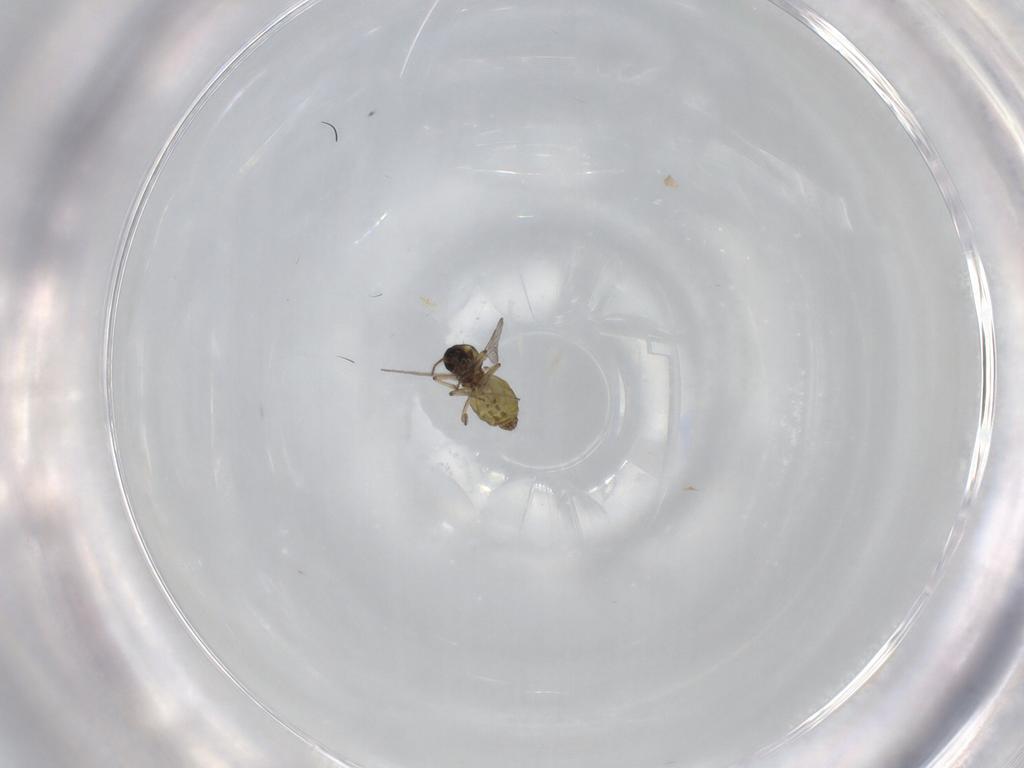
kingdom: Animalia
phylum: Arthropoda
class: Insecta
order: Diptera
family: Ceratopogonidae
